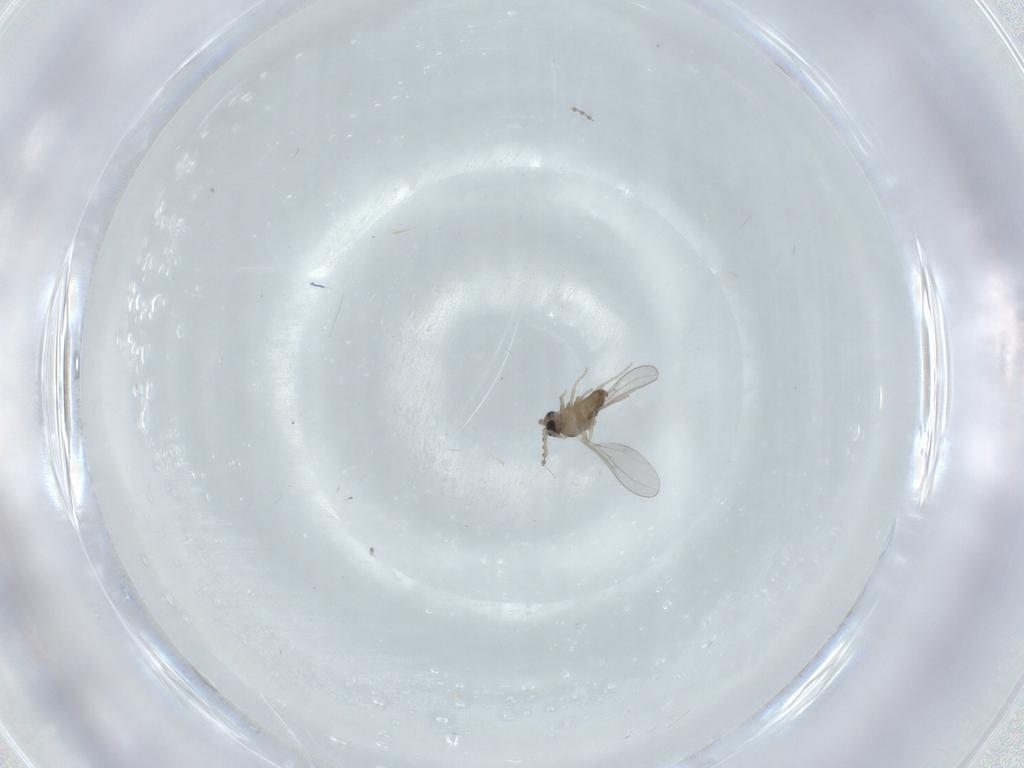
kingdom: Animalia
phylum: Arthropoda
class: Insecta
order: Diptera
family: Cecidomyiidae
